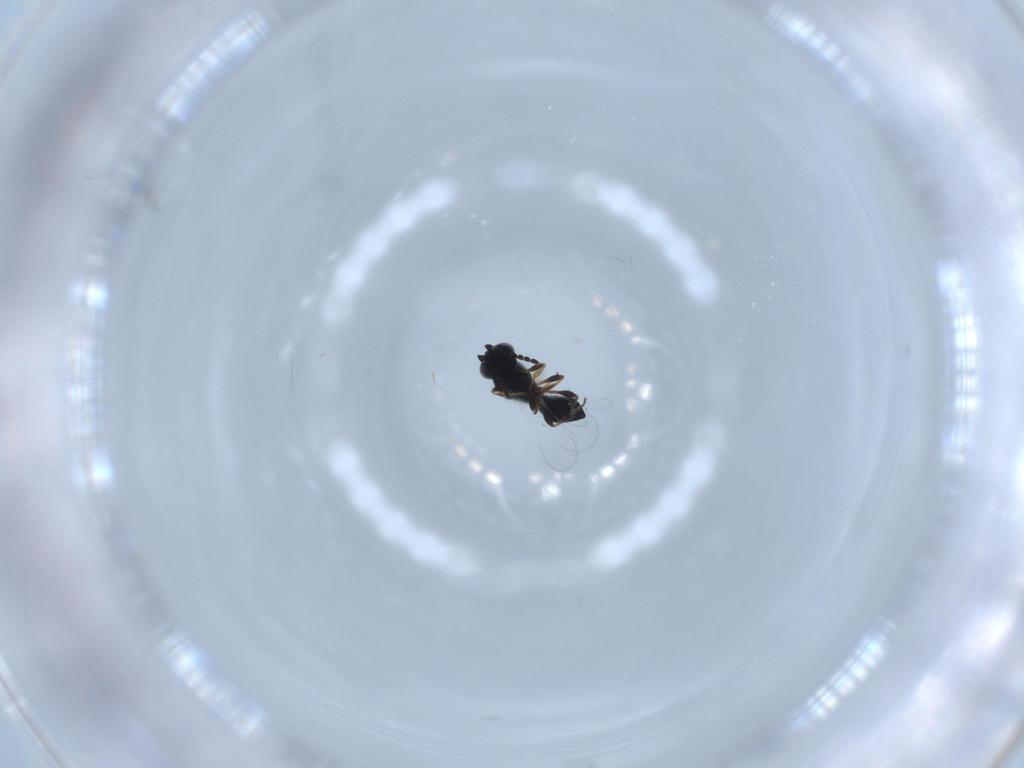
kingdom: Animalia
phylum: Arthropoda
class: Insecta
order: Hymenoptera
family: Platygastridae
